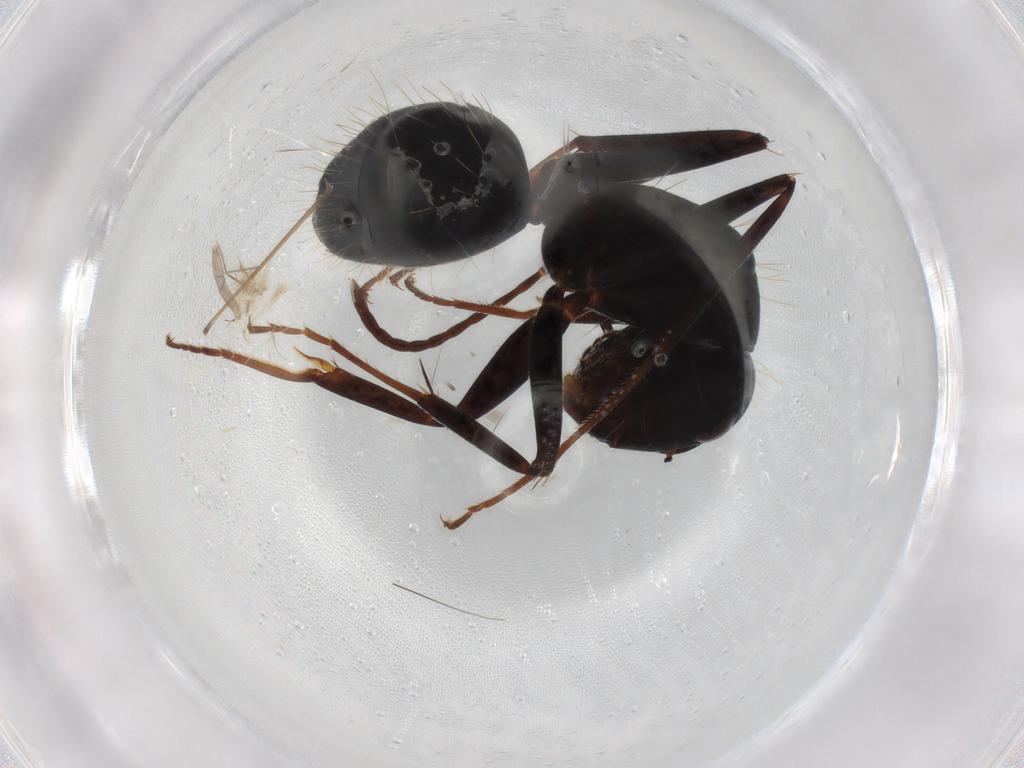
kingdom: Animalia
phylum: Arthropoda
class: Insecta
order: Hymenoptera
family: Formicidae
